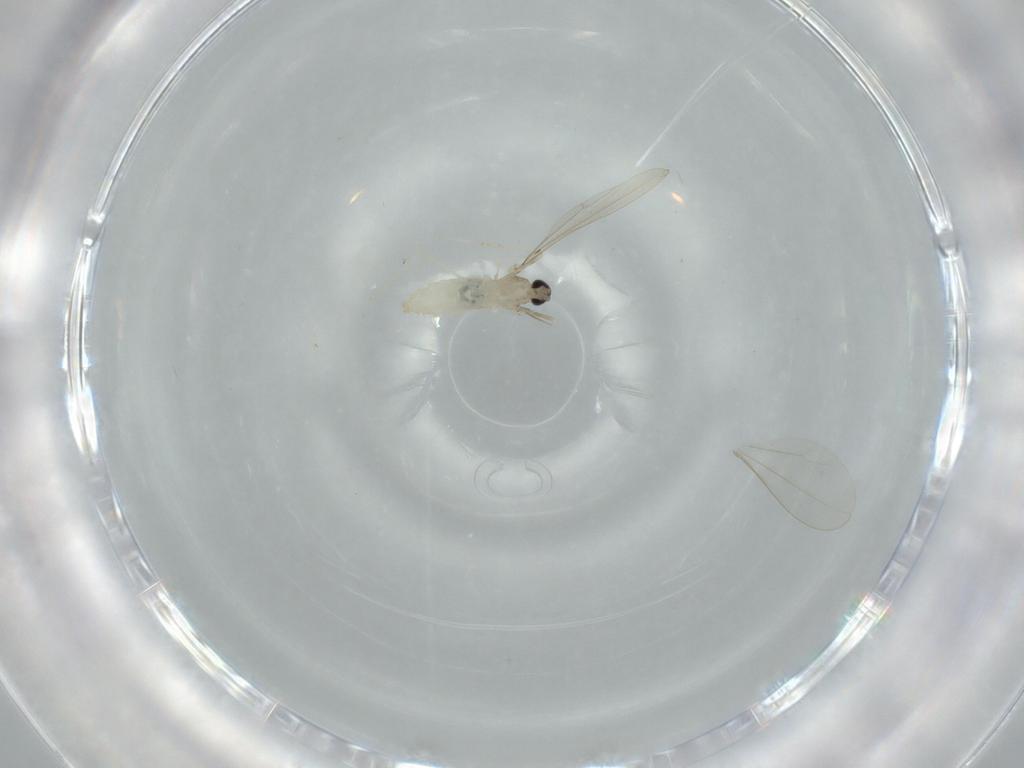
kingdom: Animalia
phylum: Arthropoda
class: Insecta
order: Diptera
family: Cecidomyiidae
